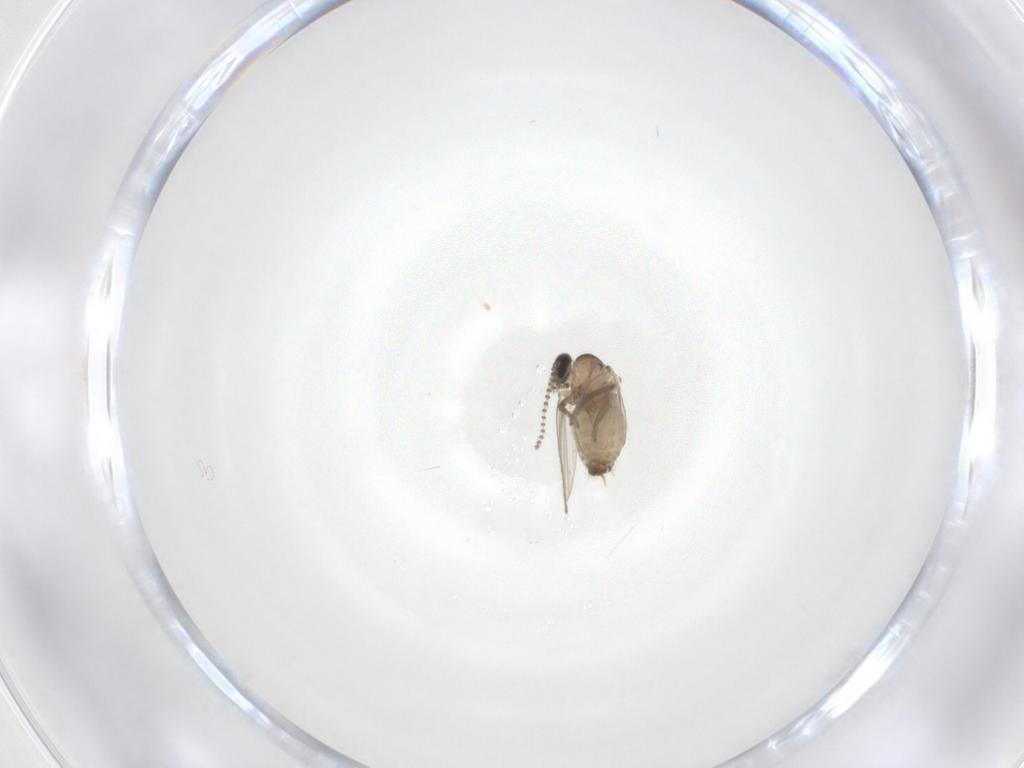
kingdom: Animalia
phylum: Arthropoda
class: Insecta
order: Diptera
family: Psychodidae
